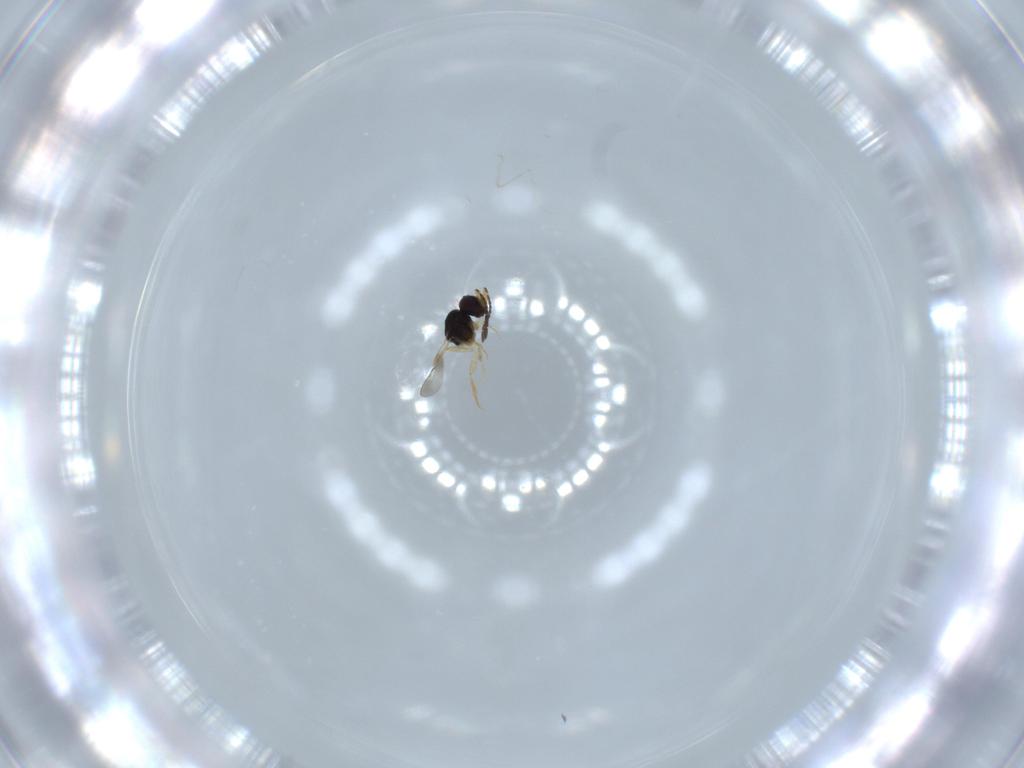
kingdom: Animalia
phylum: Arthropoda
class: Insecta
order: Hymenoptera
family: Ceraphronidae
